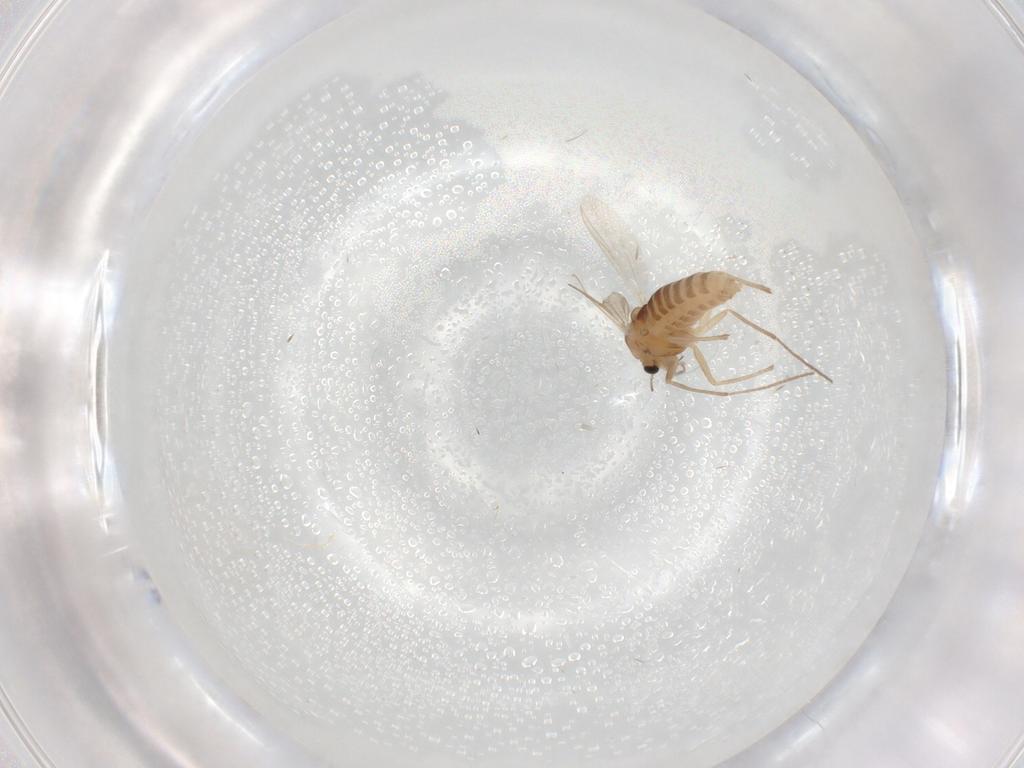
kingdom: Animalia
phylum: Arthropoda
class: Insecta
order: Diptera
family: Chironomidae
